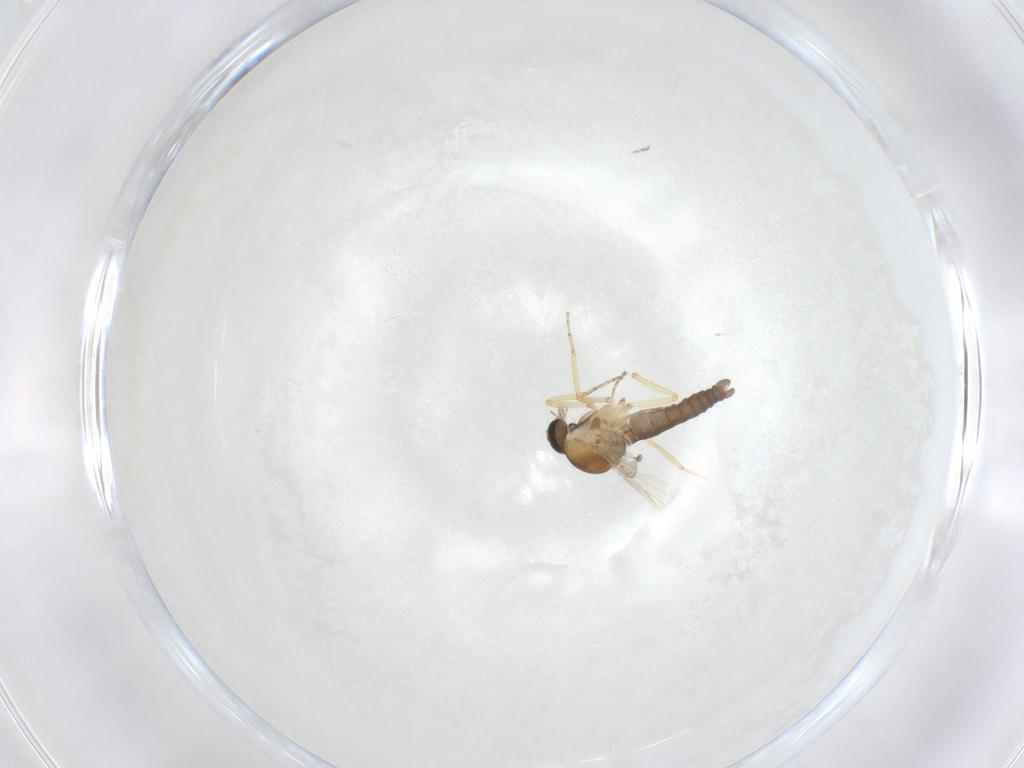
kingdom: Animalia
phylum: Arthropoda
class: Insecta
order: Diptera
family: Ceratopogonidae
